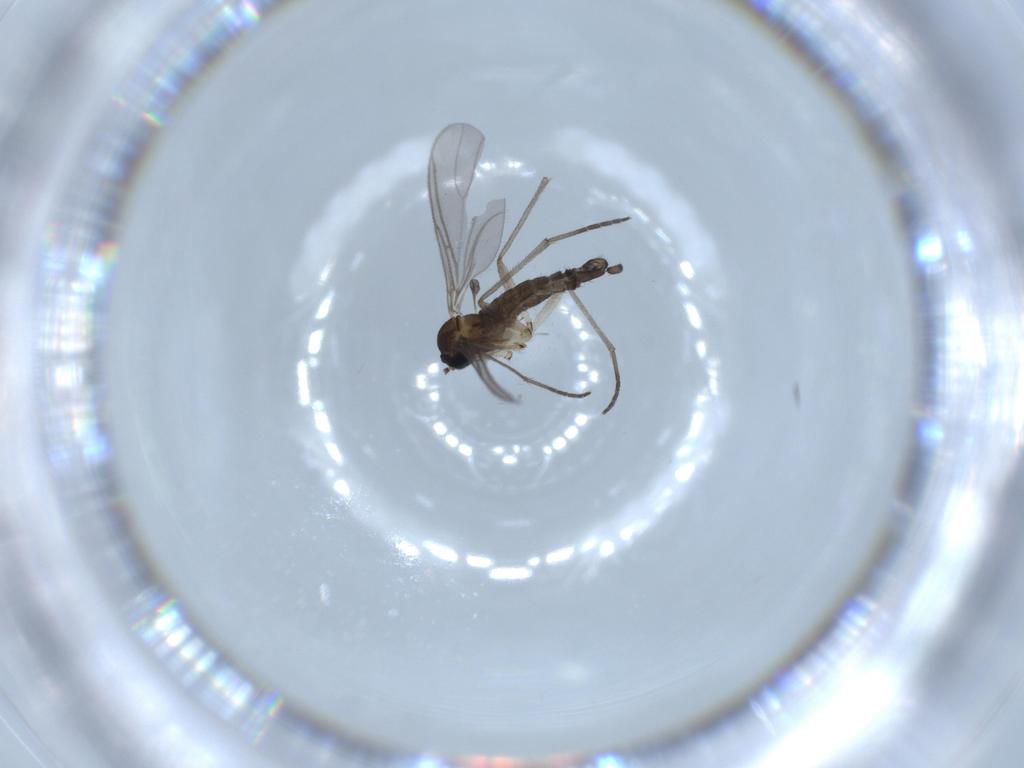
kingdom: Animalia
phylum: Arthropoda
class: Insecta
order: Diptera
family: Sciaridae
